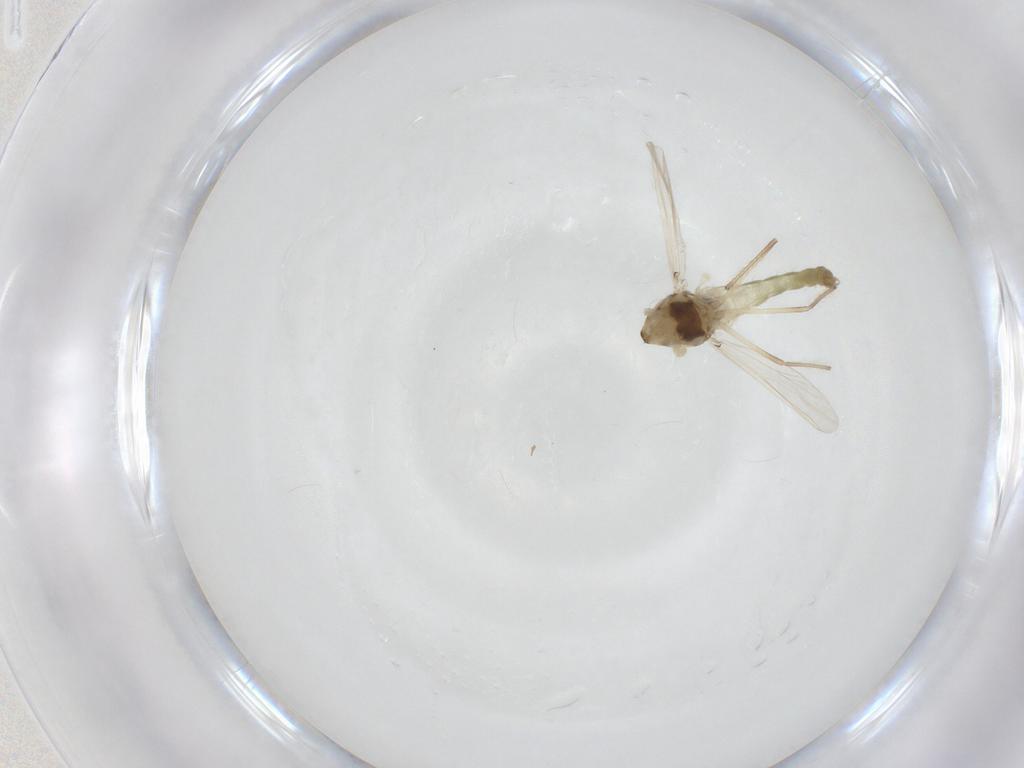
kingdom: Animalia
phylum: Arthropoda
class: Insecta
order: Diptera
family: Chironomidae
